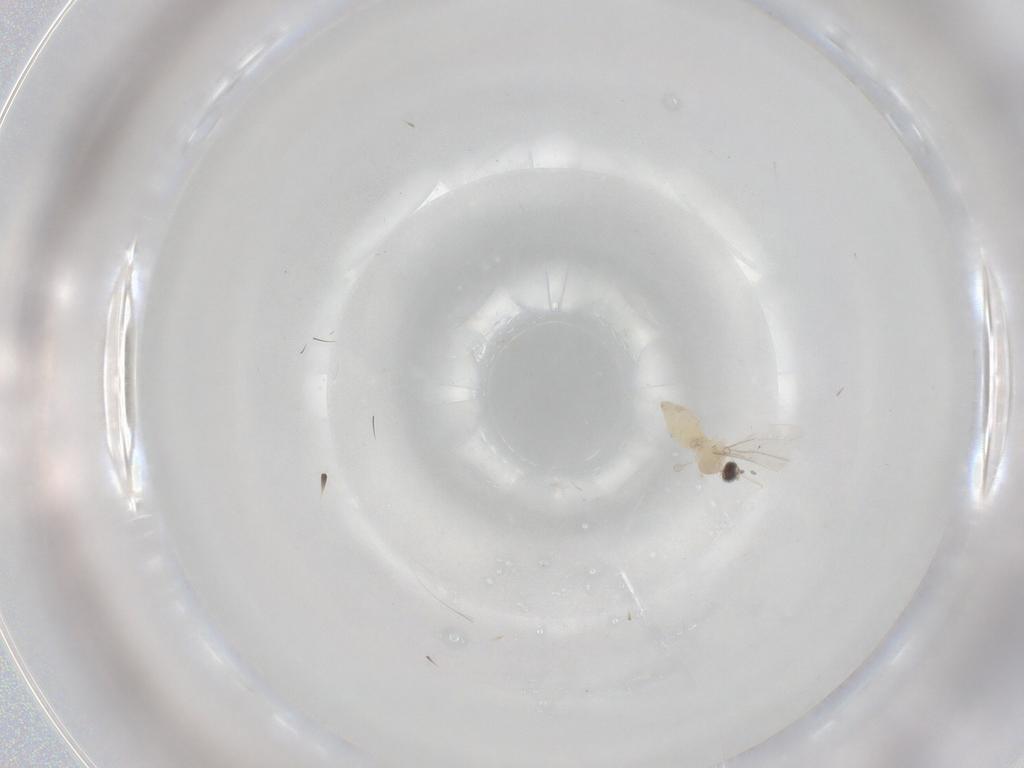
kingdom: Animalia
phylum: Arthropoda
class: Insecta
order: Diptera
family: Cecidomyiidae
